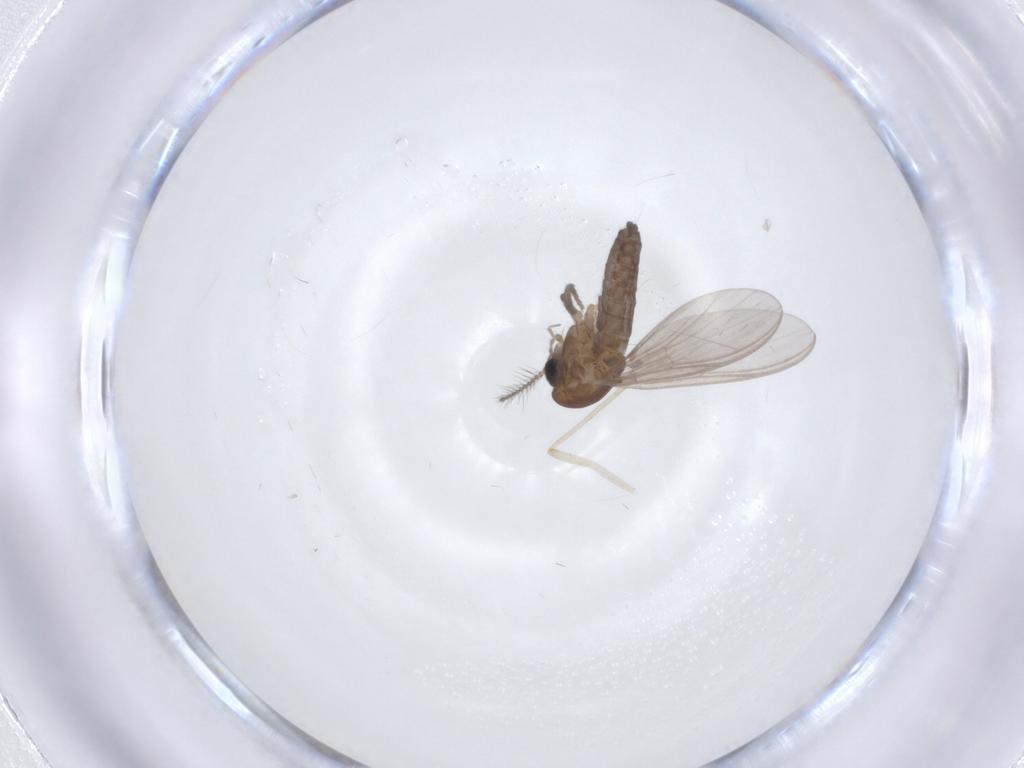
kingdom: Animalia
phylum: Arthropoda
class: Insecta
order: Diptera
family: Chironomidae
